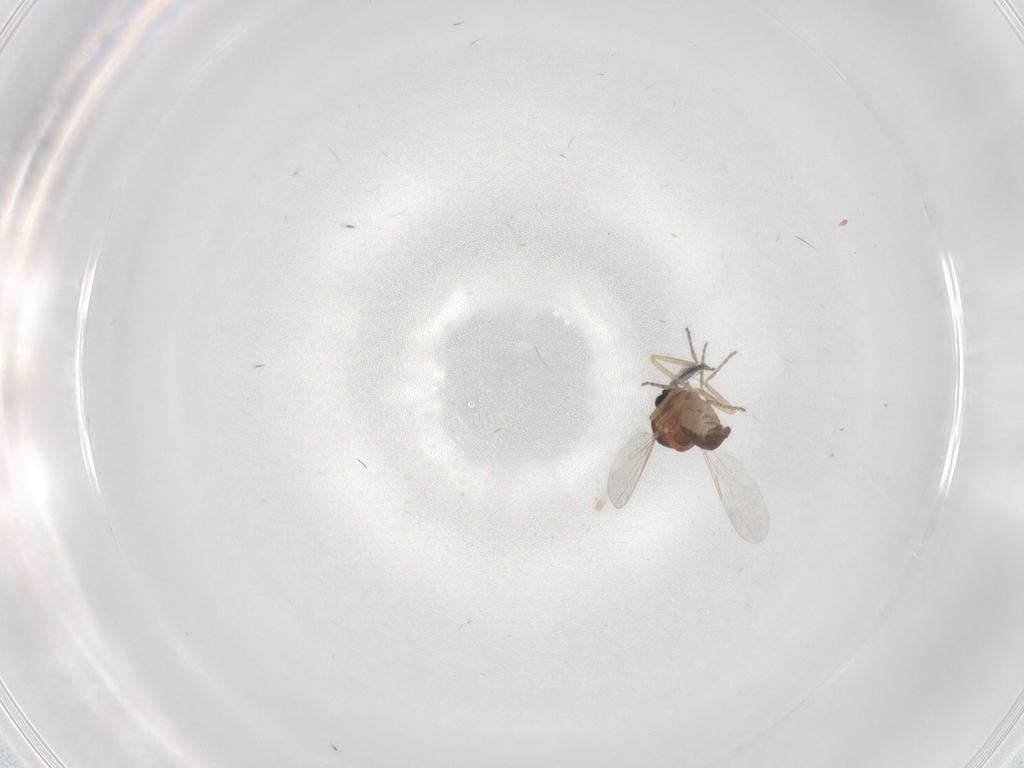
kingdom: Animalia
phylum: Arthropoda
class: Insecta
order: Diptera
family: Ceratopogonidae
